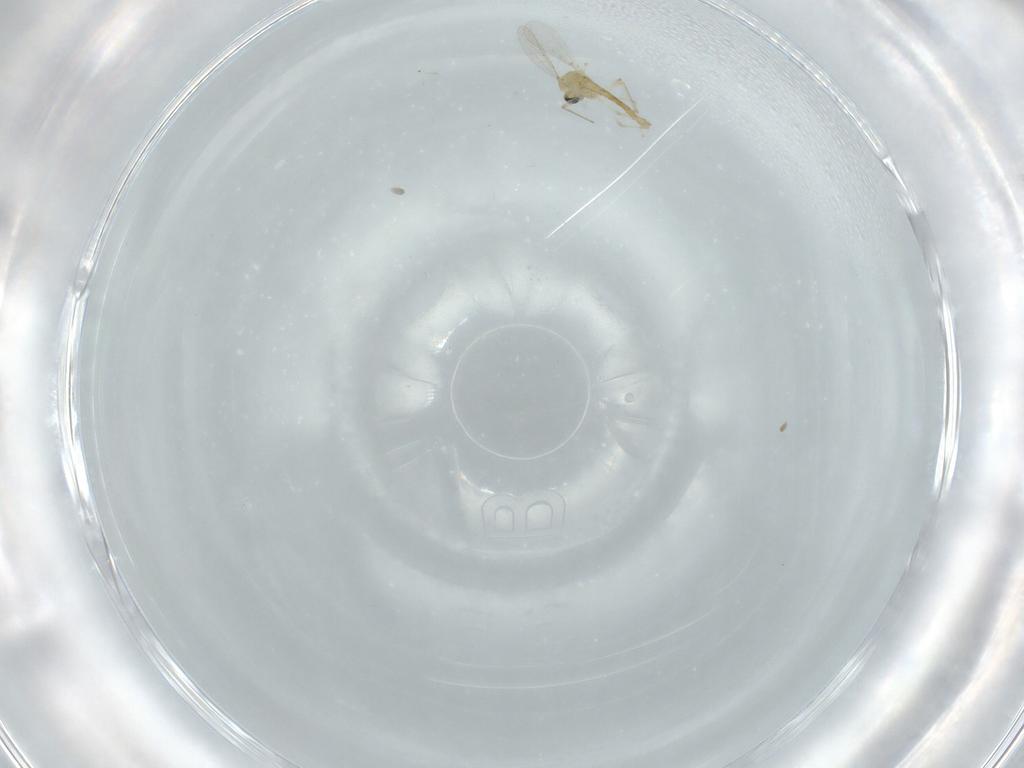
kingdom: Animalia
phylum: Arthropoda
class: Insecta
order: Diptera
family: Chironomidae
